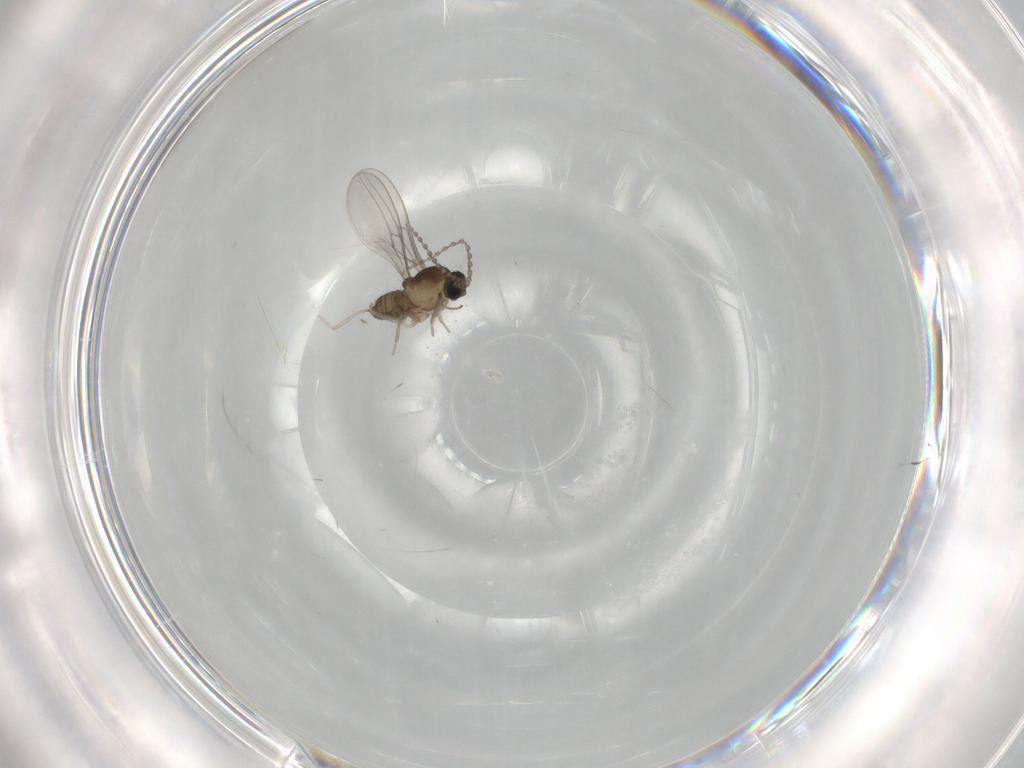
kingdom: Animalia
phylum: Arthropoda
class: Insecta
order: Diptera
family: Cecidomyiidae
